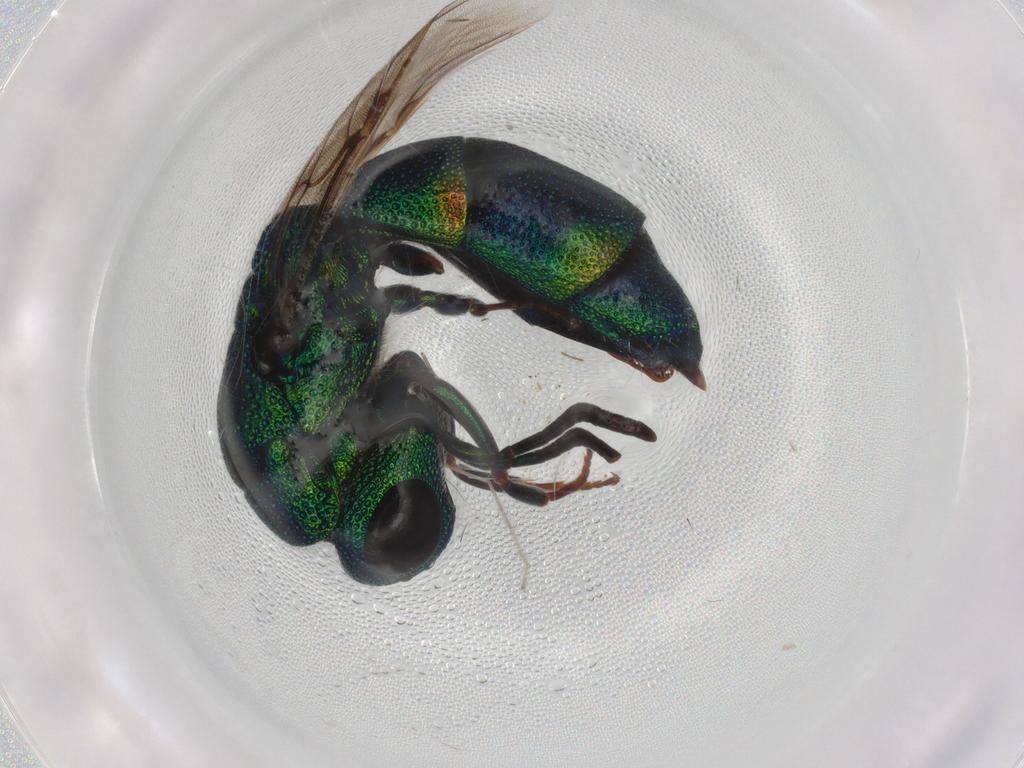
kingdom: Animalia
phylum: Arthropoda
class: Insecta
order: Hymenoptera
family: Chrysididae
